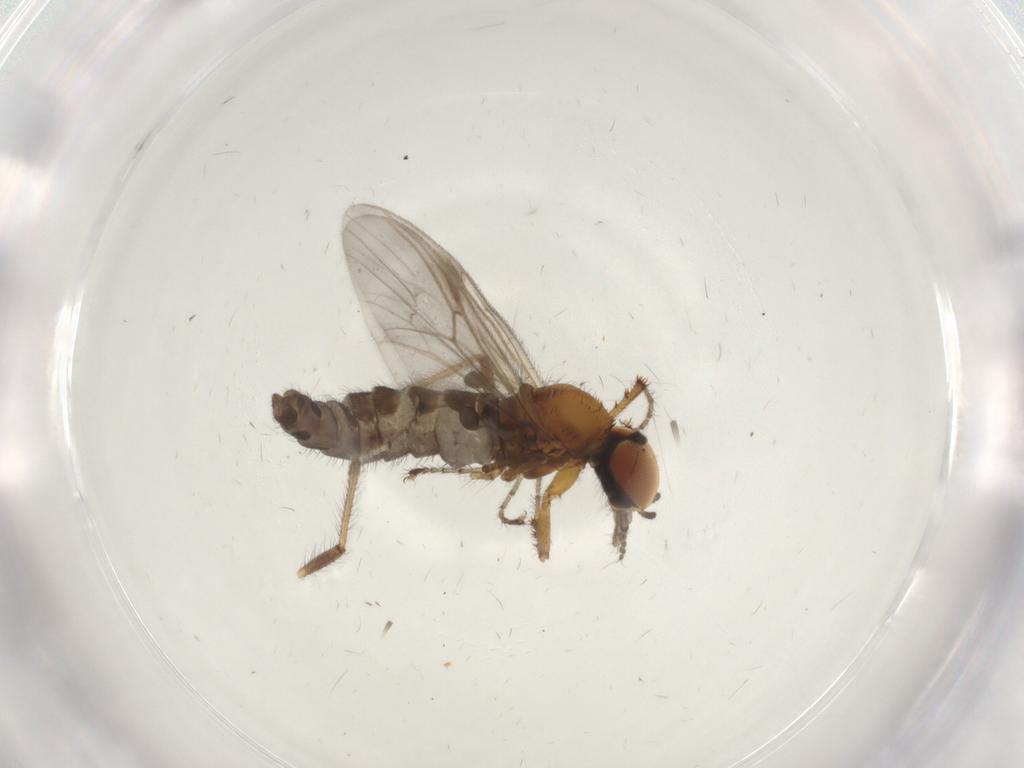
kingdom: Animalia
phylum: Arthropoda
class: Insecta
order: Diptera
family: Bibionidae
